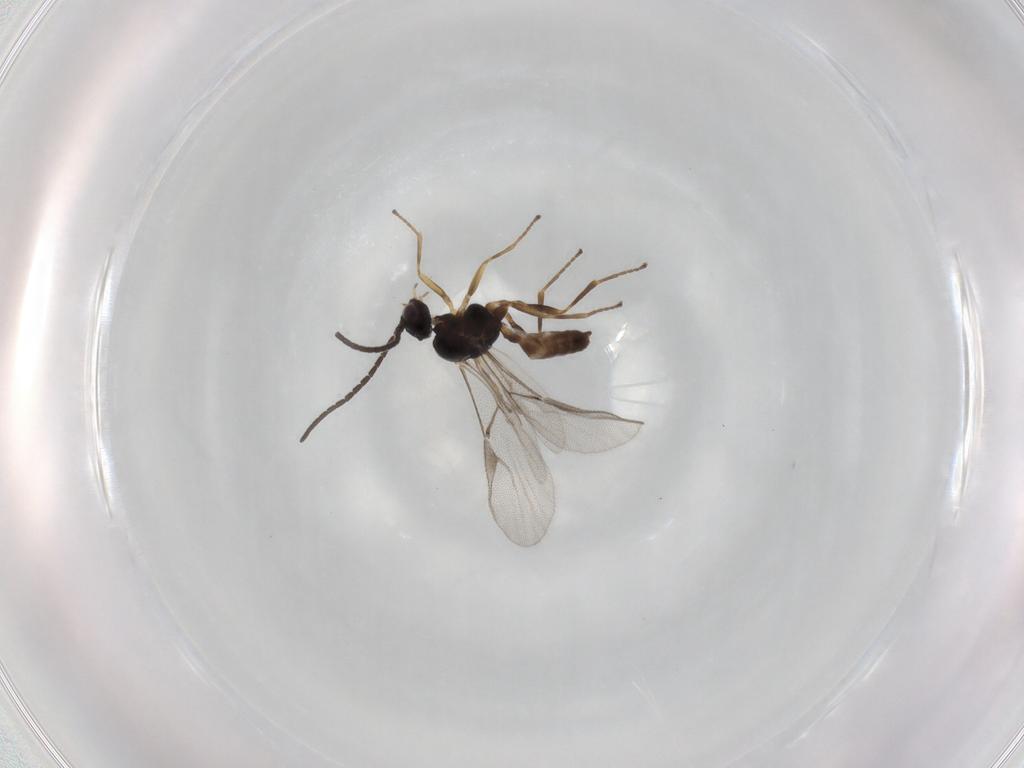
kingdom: Animalia
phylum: Arthropoda
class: Insecta
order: Hymenoptera
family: Braconidae
